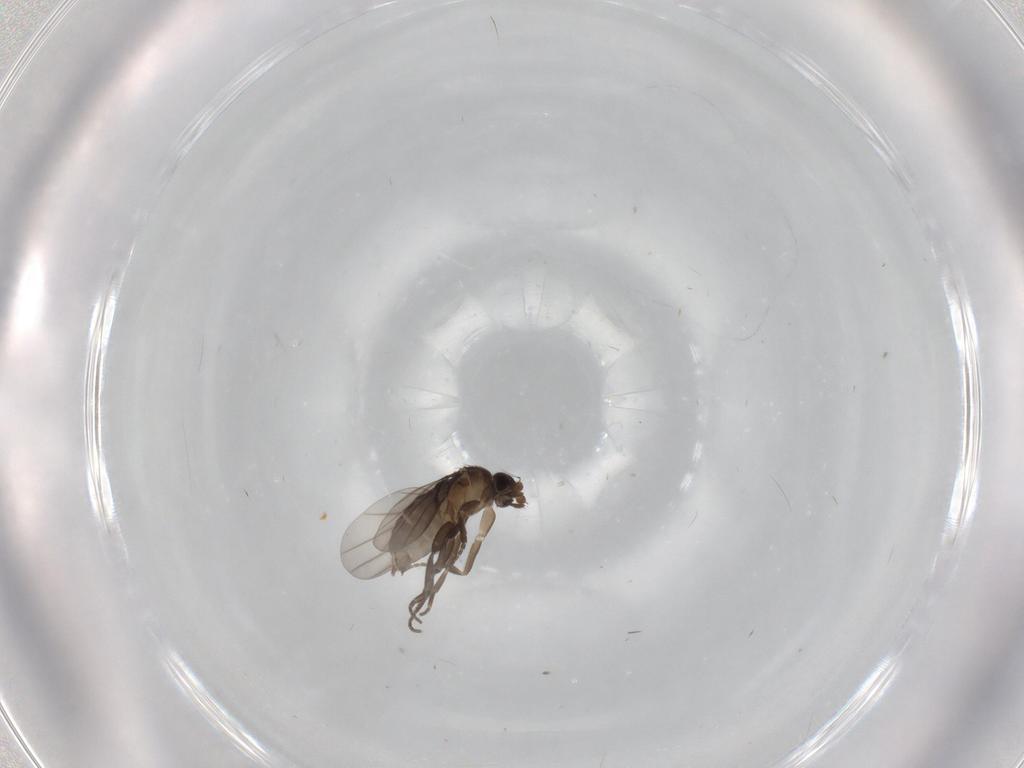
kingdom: Animalia
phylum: Arthropoda
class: Insecta
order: Diptera
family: Phoridae
